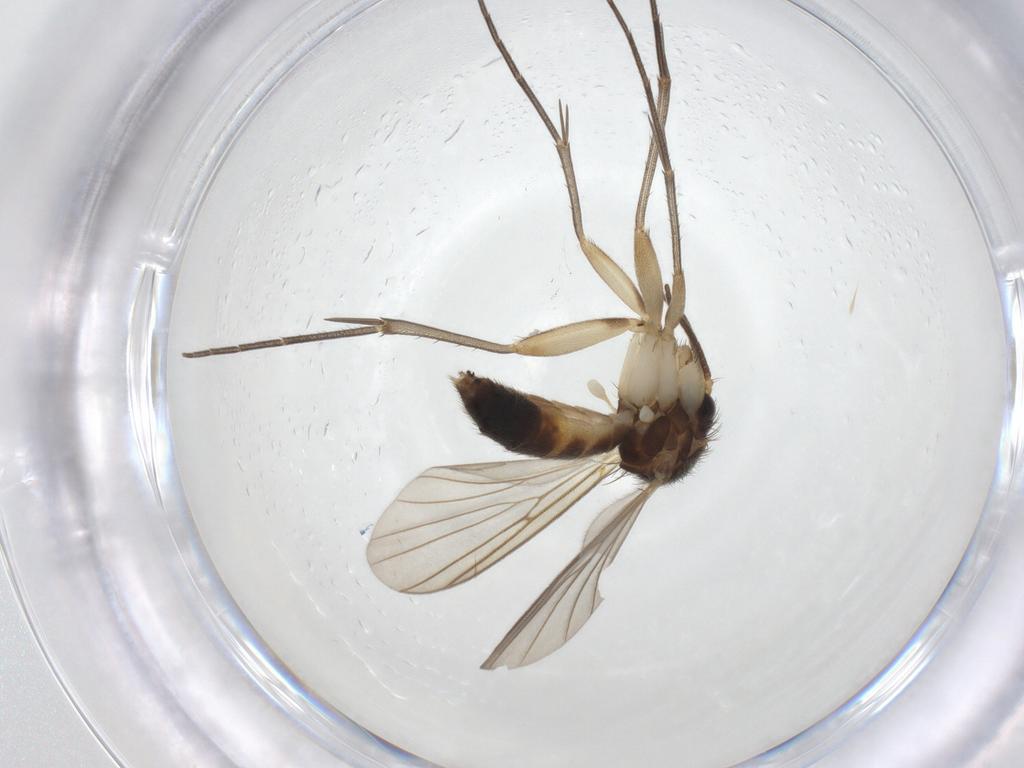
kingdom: Animalia
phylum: Arthropoda
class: Insecta
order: Diptera
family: Mycetophilidae
